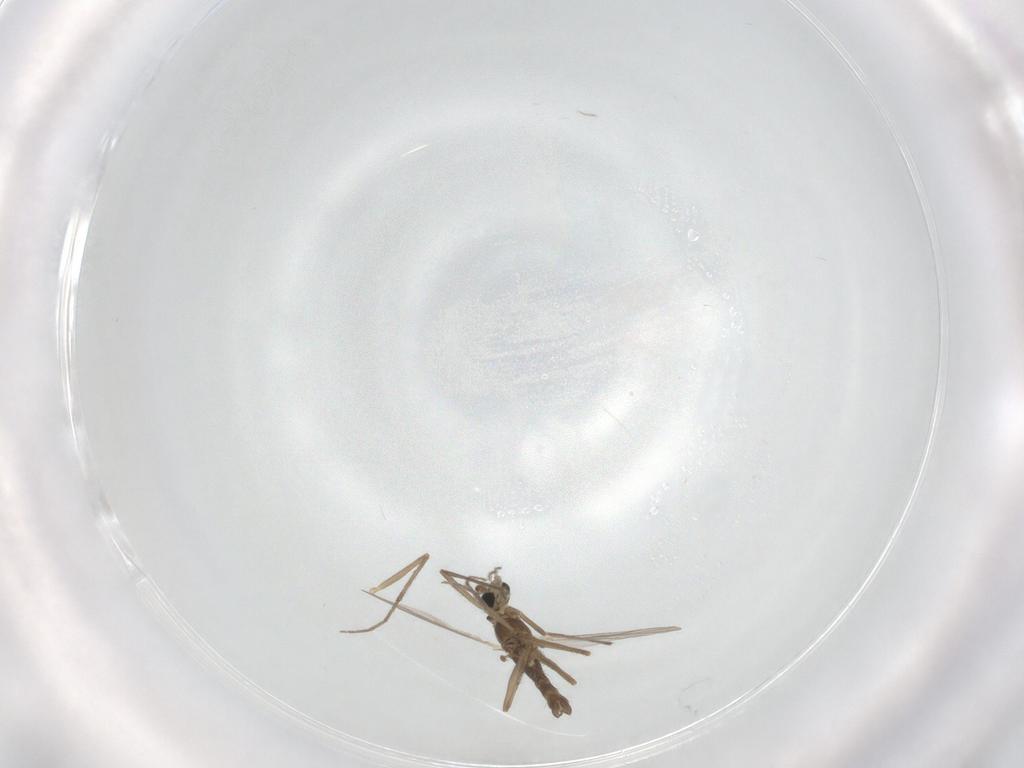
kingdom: Animalia
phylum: Arthropoda
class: Insecta
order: Diptera
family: Chironomidae
